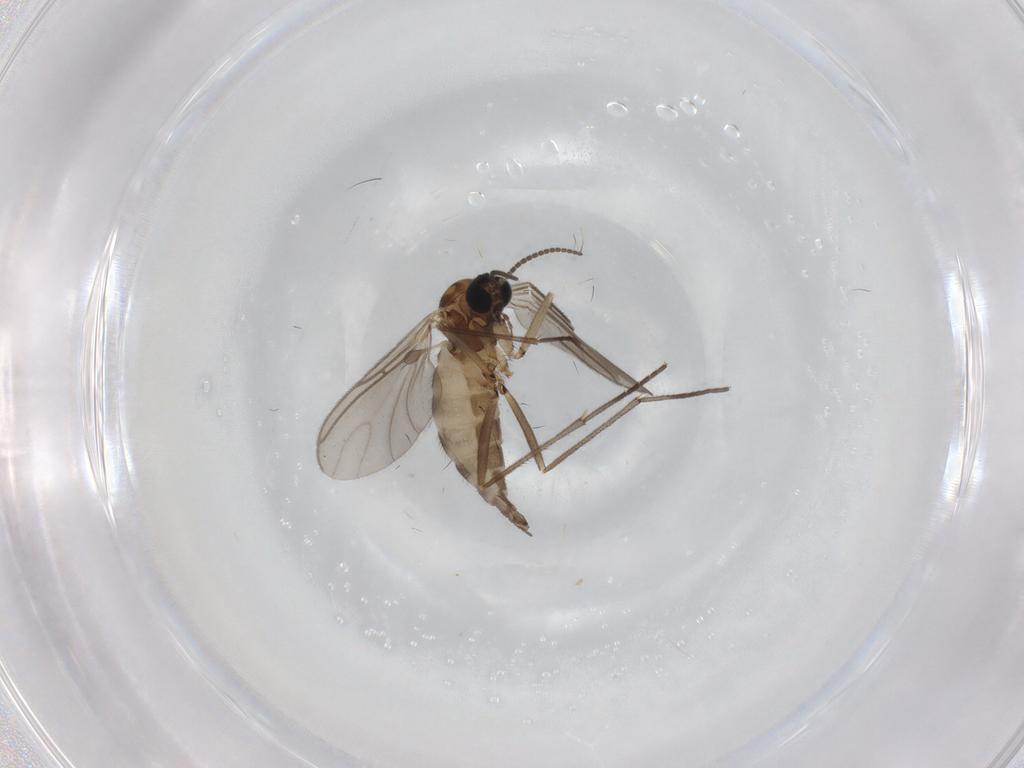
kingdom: Animalia
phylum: Arthropoda
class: Insecta
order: Diptera
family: Sciaridae
